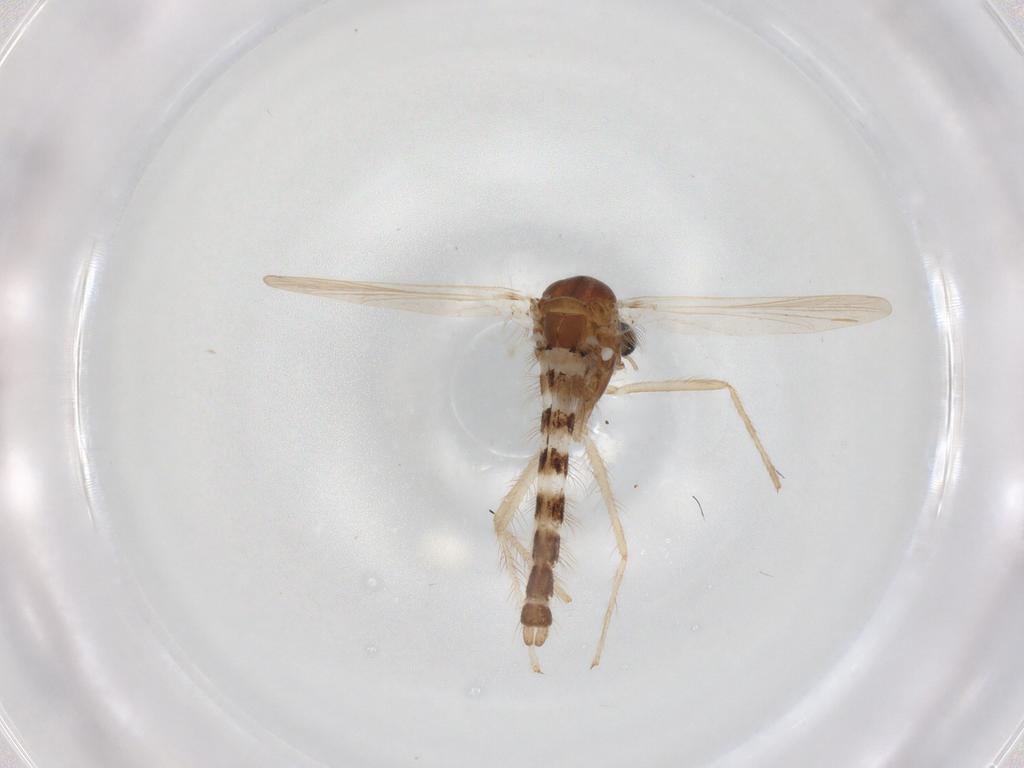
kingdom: Animalia
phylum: Arthropoda
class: Insecta
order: Diptera
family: Chironomidae
